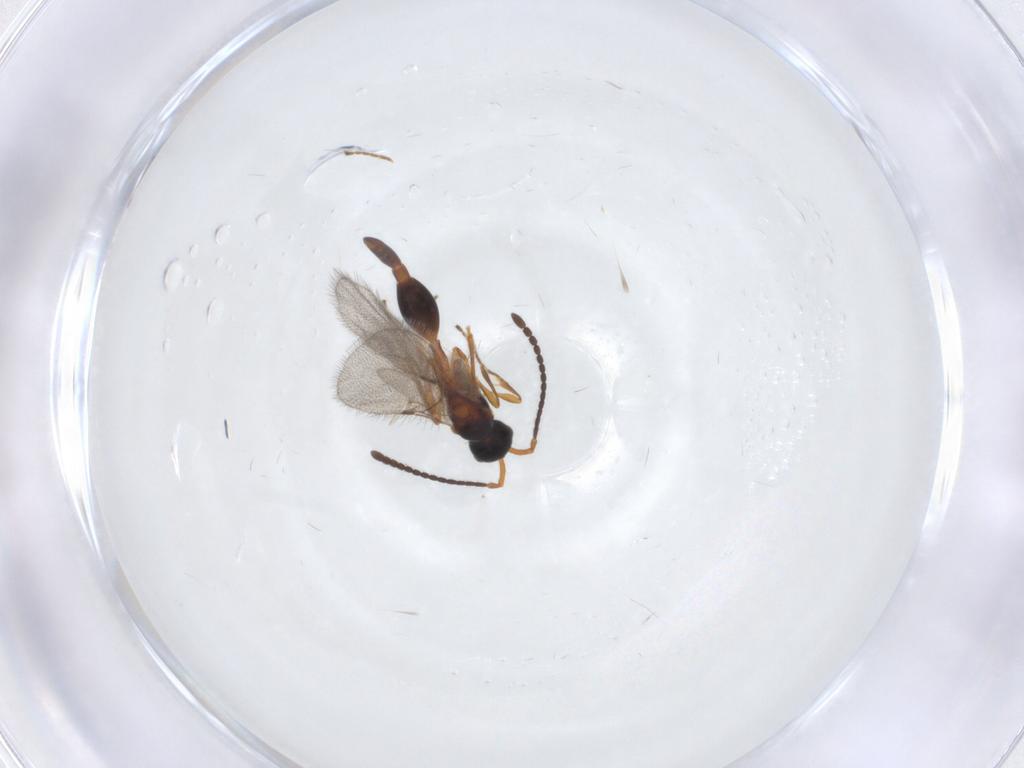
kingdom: Animalia
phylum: Arthropoda
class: Insecta
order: Hymenoptera
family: Diapriidae
